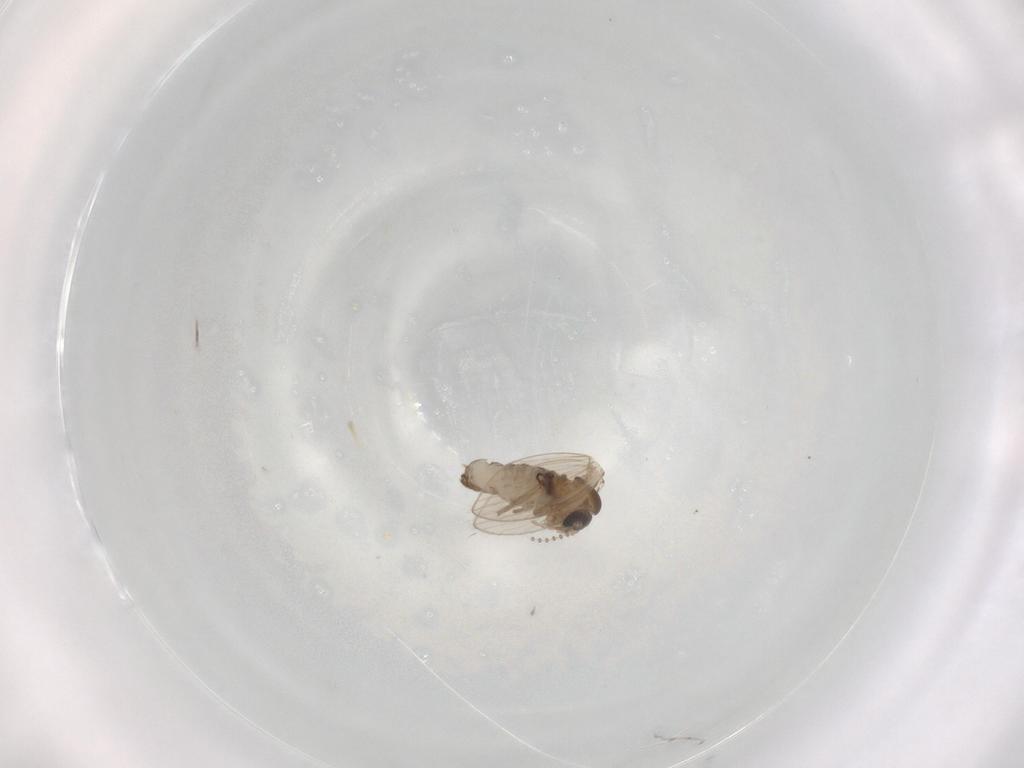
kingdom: Animalia
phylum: Arthropoda
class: Insecta
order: Diptera
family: Psychodidae
